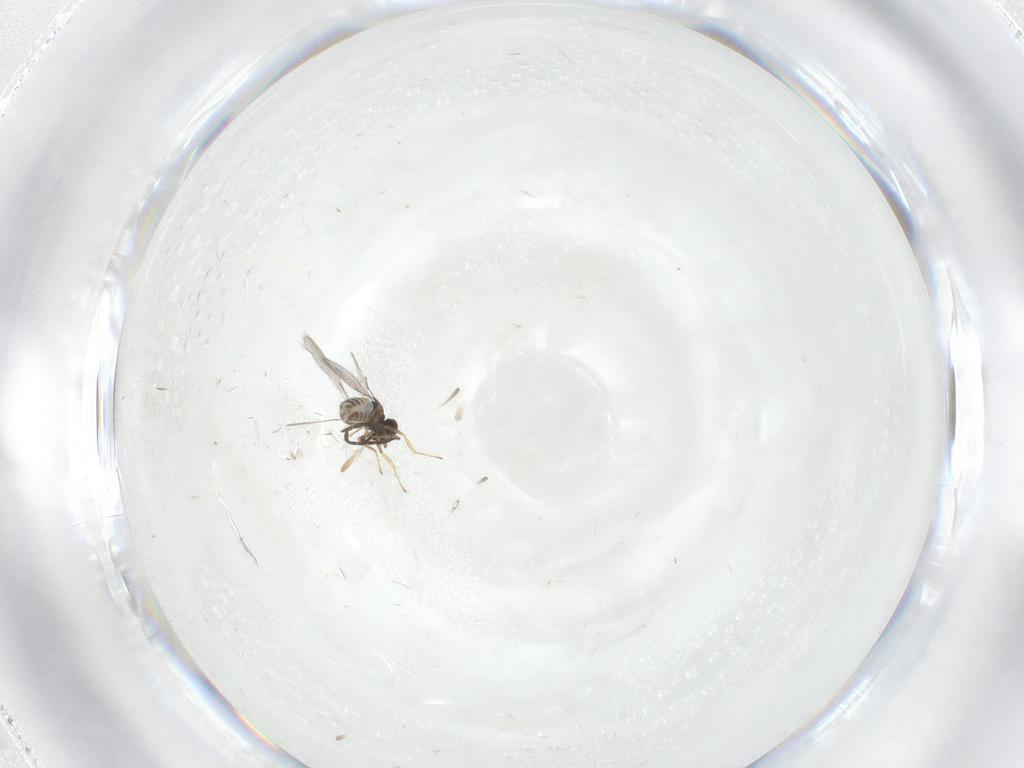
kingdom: Animalia
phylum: Arthropoda
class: Insecta
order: Hymenoptera
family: Mymaridae
